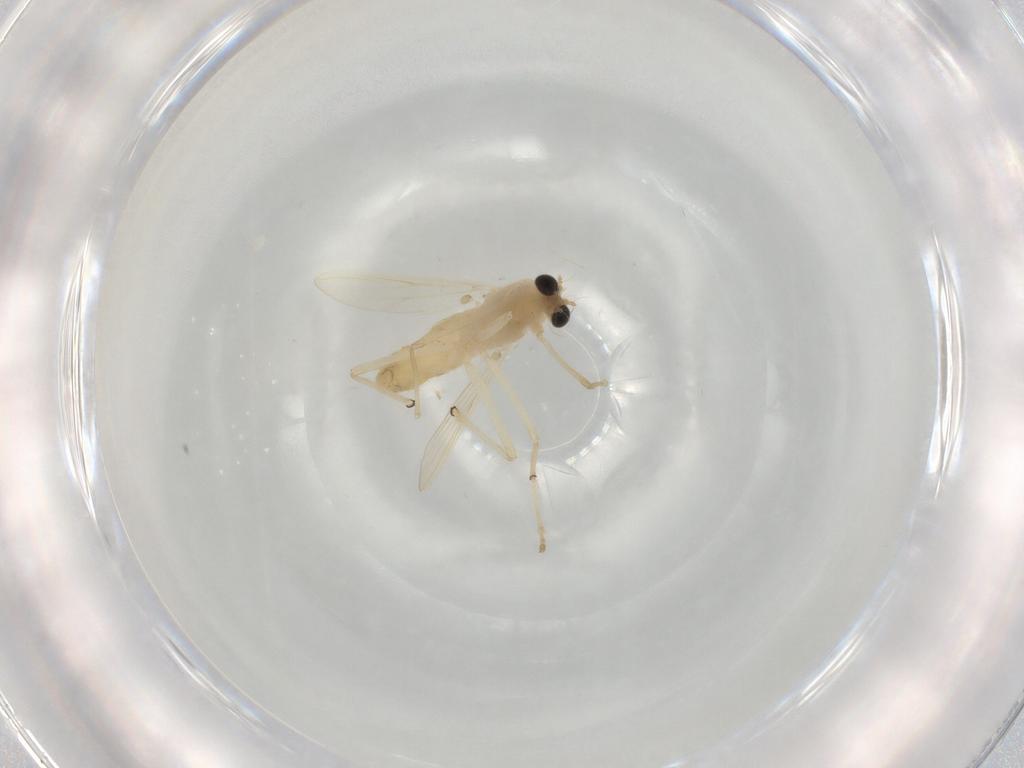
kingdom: Animalia
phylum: Arthropoda
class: Insecta
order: Diptera
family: Chironomidae
